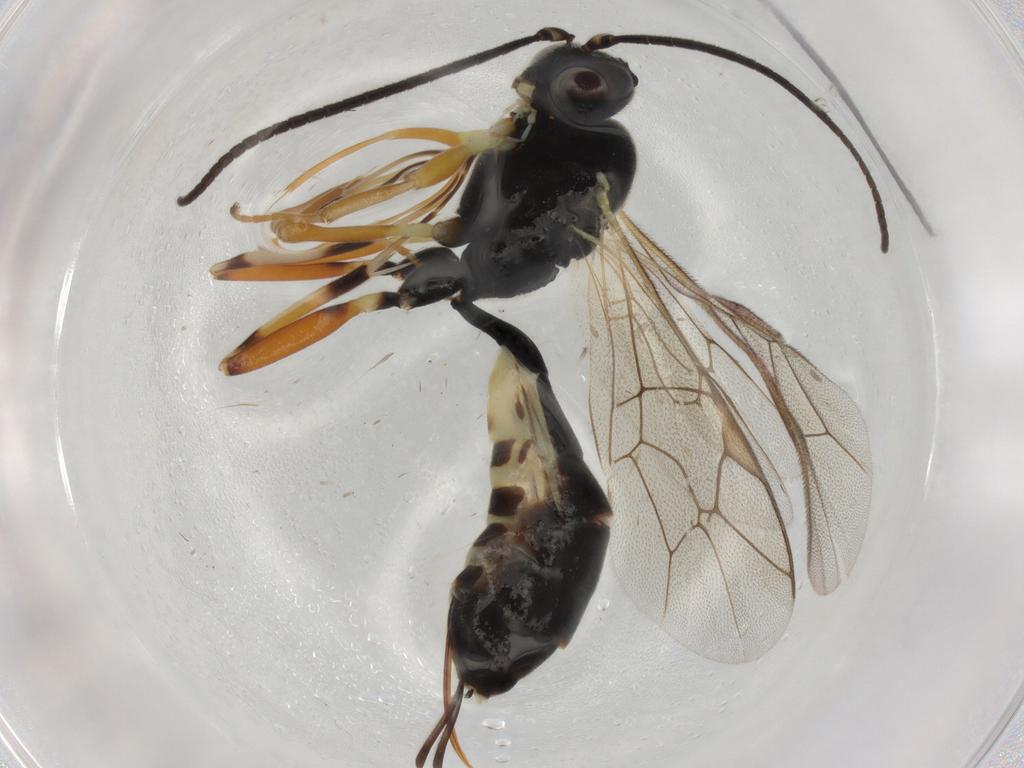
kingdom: Animalia
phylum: Arthropoda
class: Insecta
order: Hymenoptera
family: Ichneumonidae
